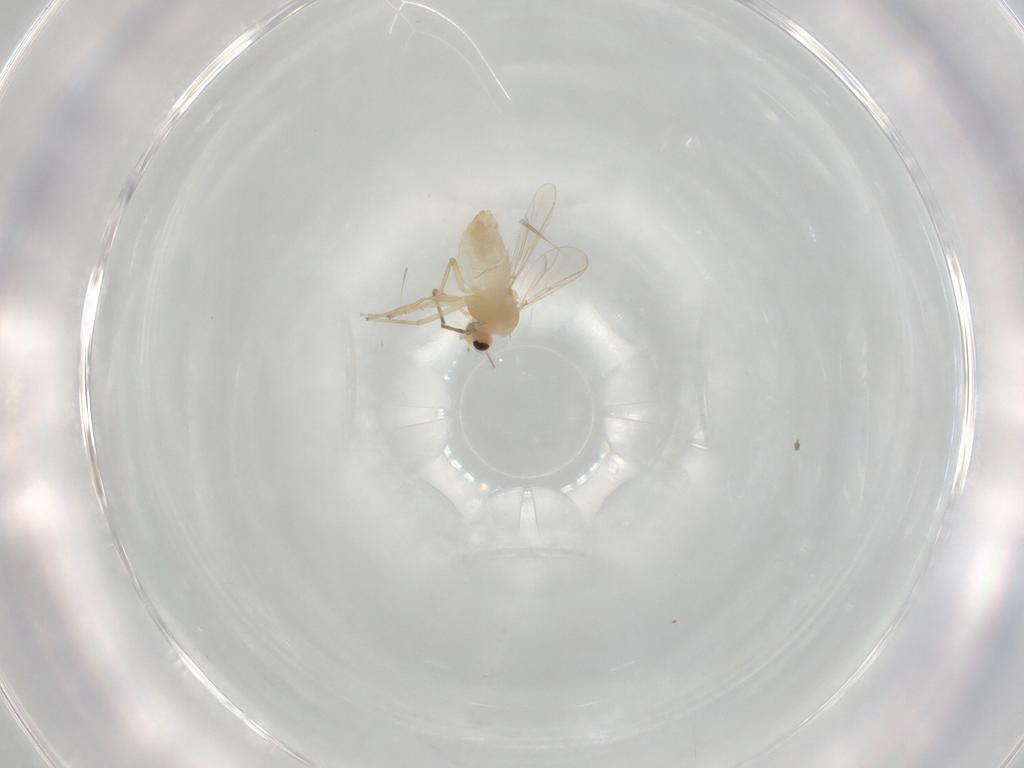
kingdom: Animalia
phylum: Arthropoda
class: Insecta
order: Diptera
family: Chironomidae
